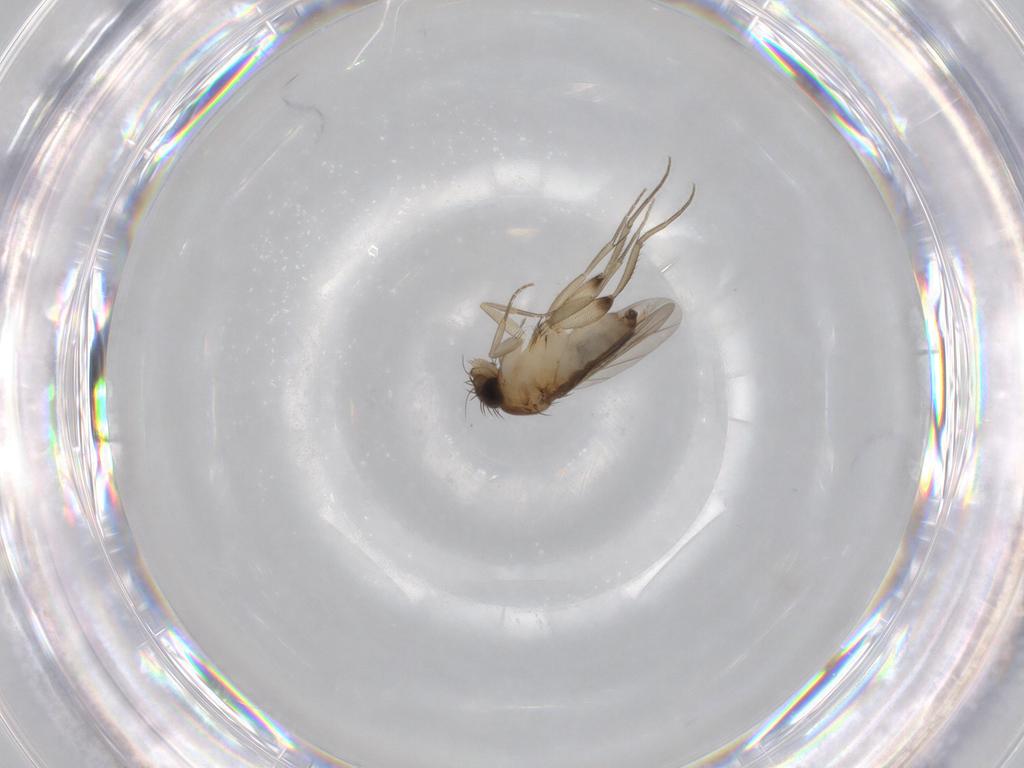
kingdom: Animalia
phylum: Arthropoda
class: Insecta
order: Diptera
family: Phoridae
